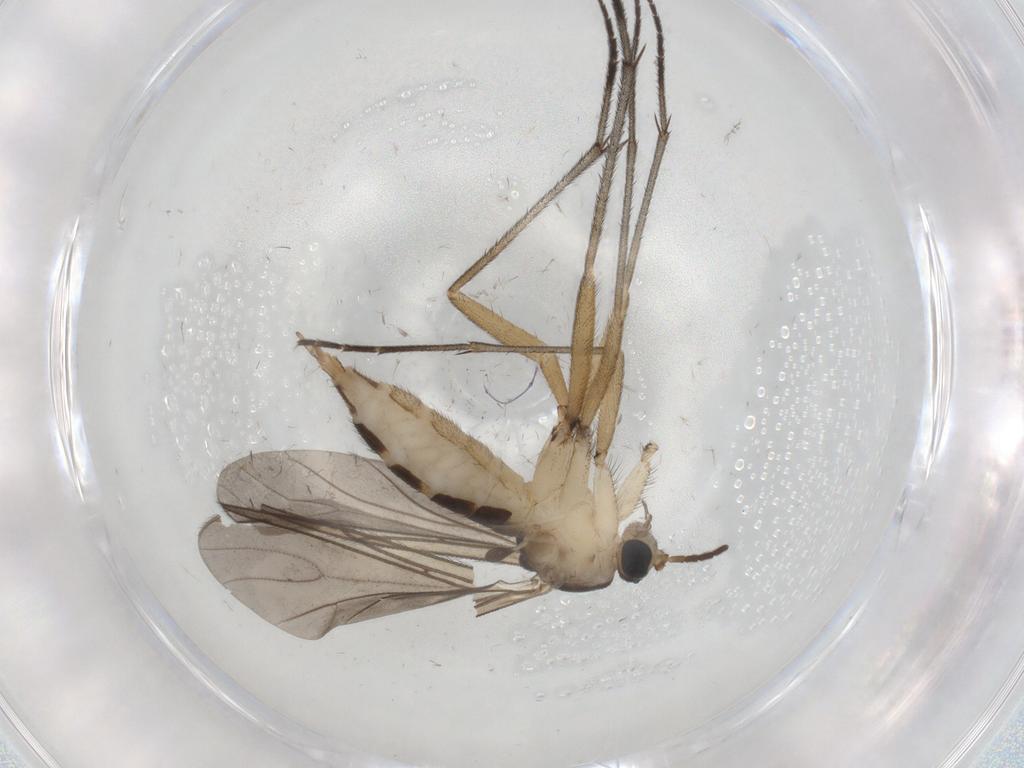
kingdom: Animalia
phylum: Arthropoda
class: Insecta
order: Diptera
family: Sciaridae
